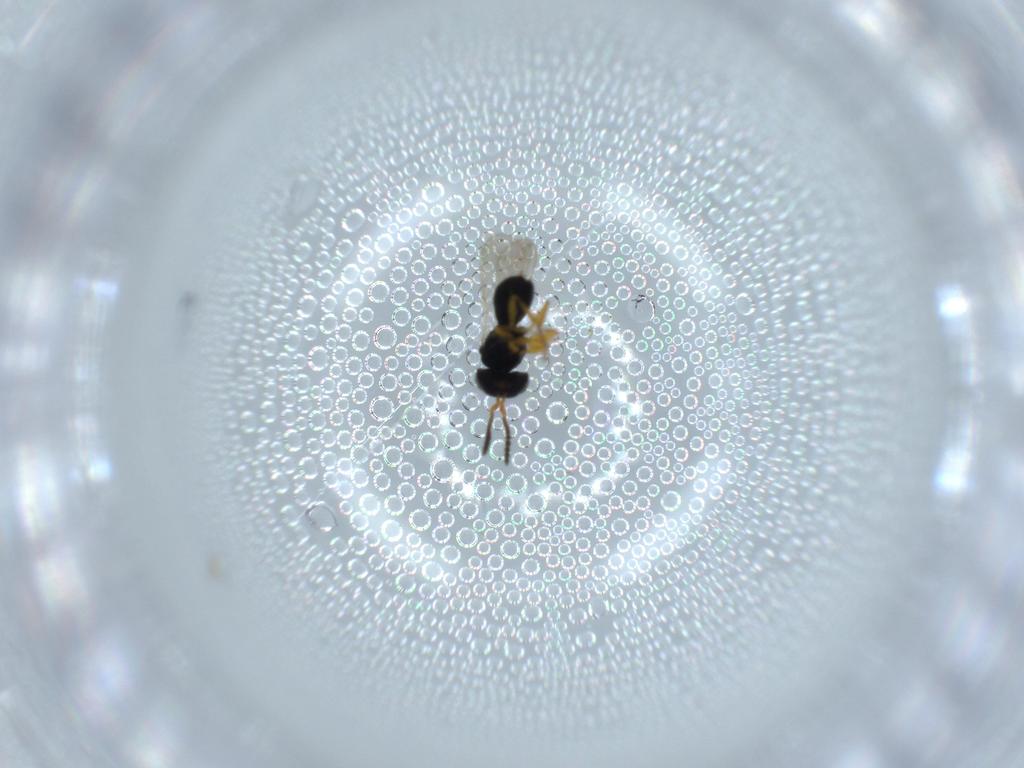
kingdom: Animalia
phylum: Arthropoda
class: Insecta
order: Hymenoptera
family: Scelionidae
